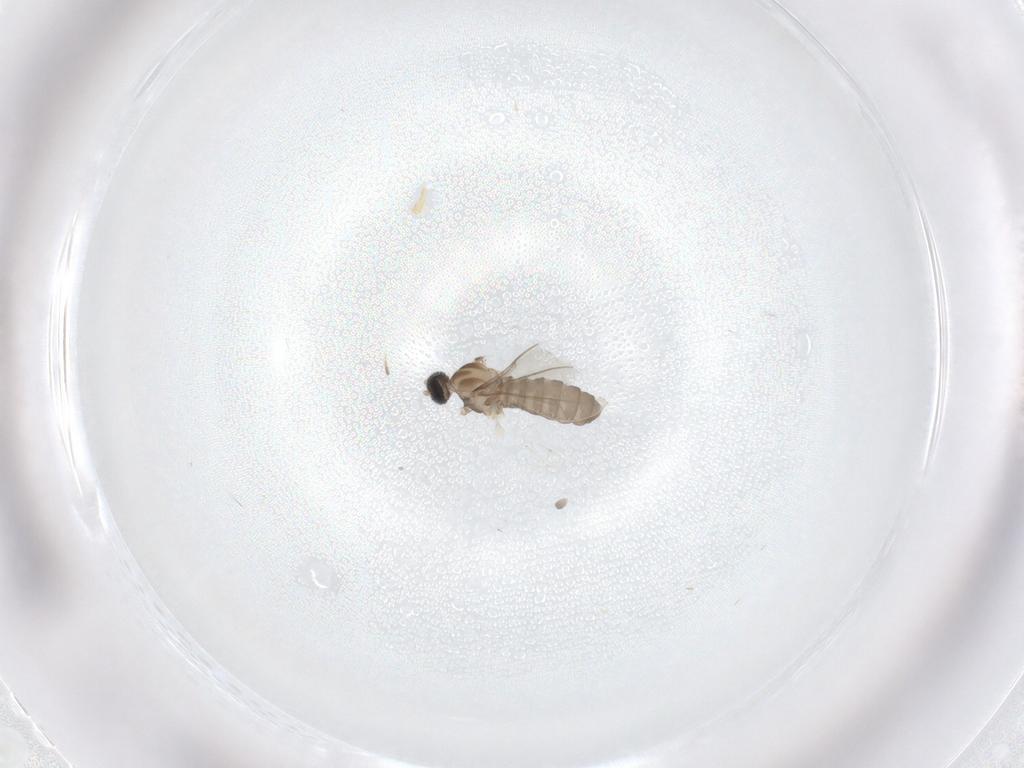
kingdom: Animalia
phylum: Arthropoda
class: Insecta
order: Diptera
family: Cecidomyiidae
